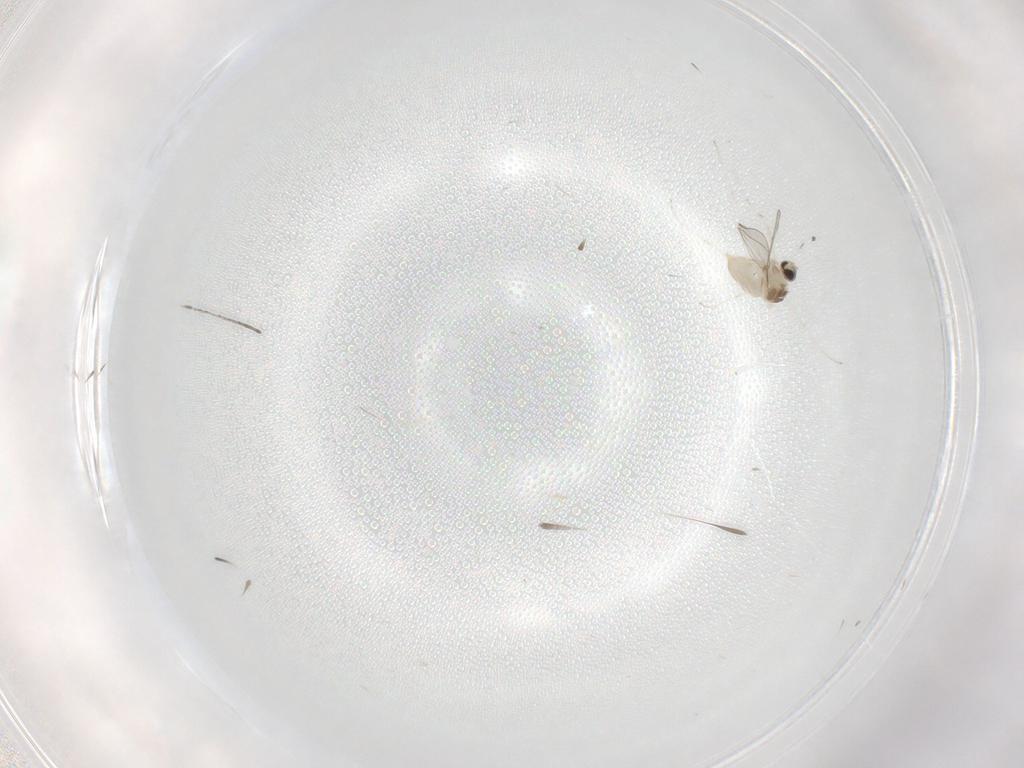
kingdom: Animalia
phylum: Arthropoda
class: Insecta
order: Diptera
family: Cecidomyiidae
